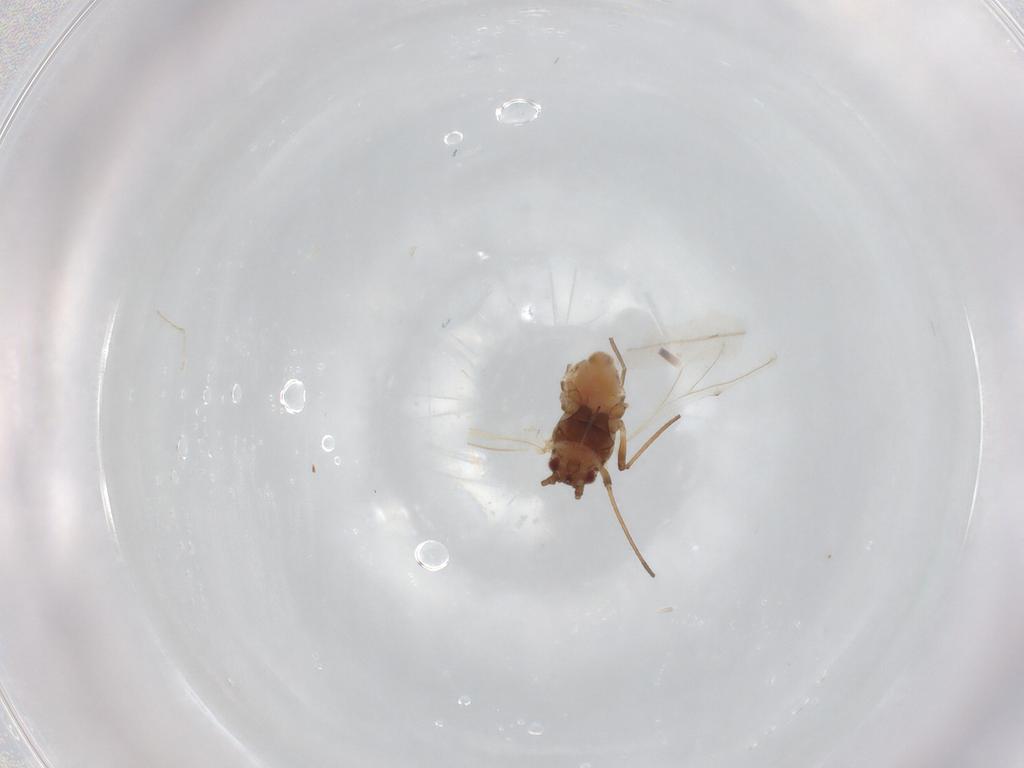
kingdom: Animalia
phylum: Arthropoda
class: Insecta
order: Hemiptera
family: Aphididae
